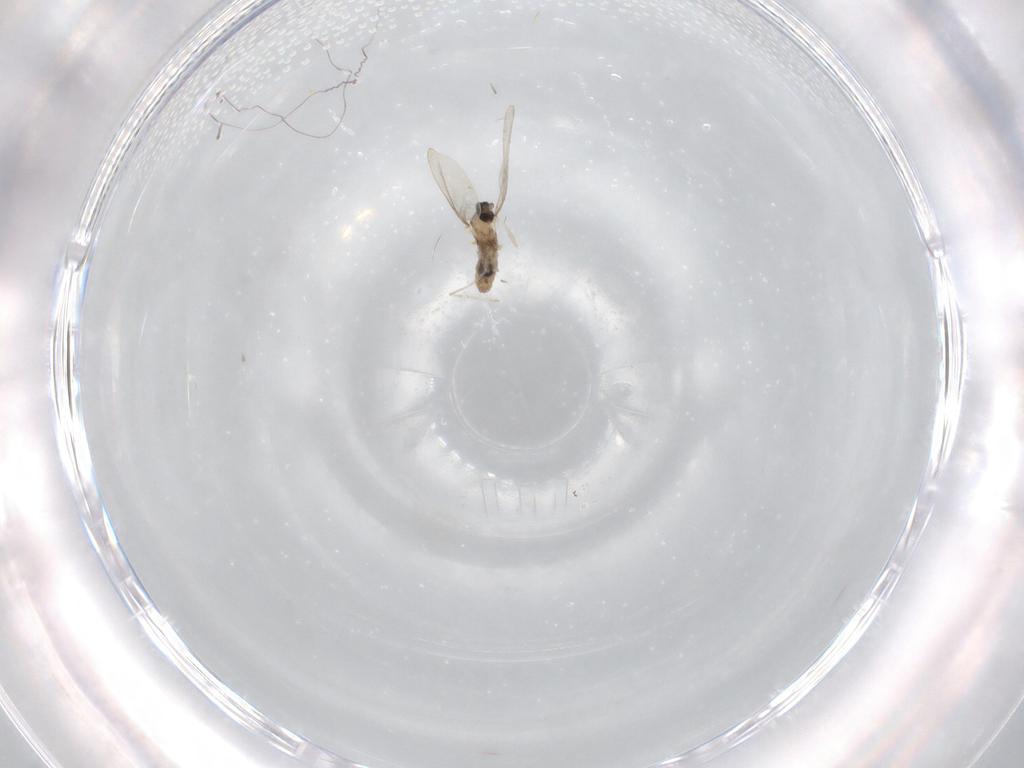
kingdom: Animalia
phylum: Arthropoda
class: Insecta
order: Diptera
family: Cecidomyiidae
